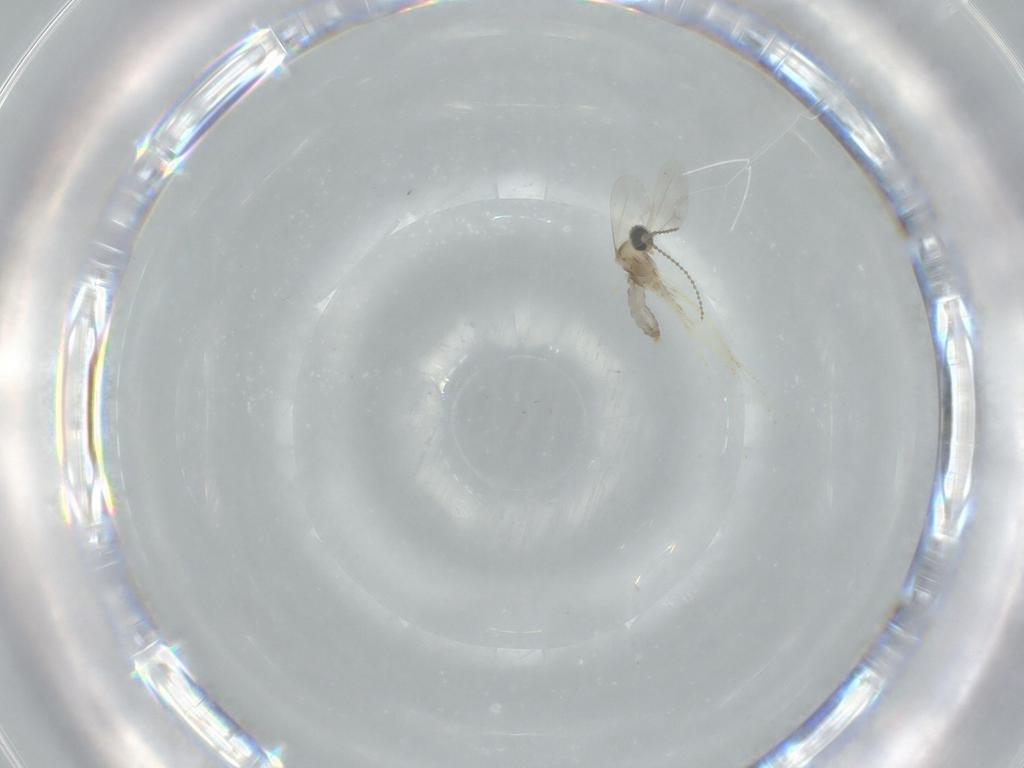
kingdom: Animalia
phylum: Arthropoda
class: Insecta
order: Diptera
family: Cecidomyiidae
